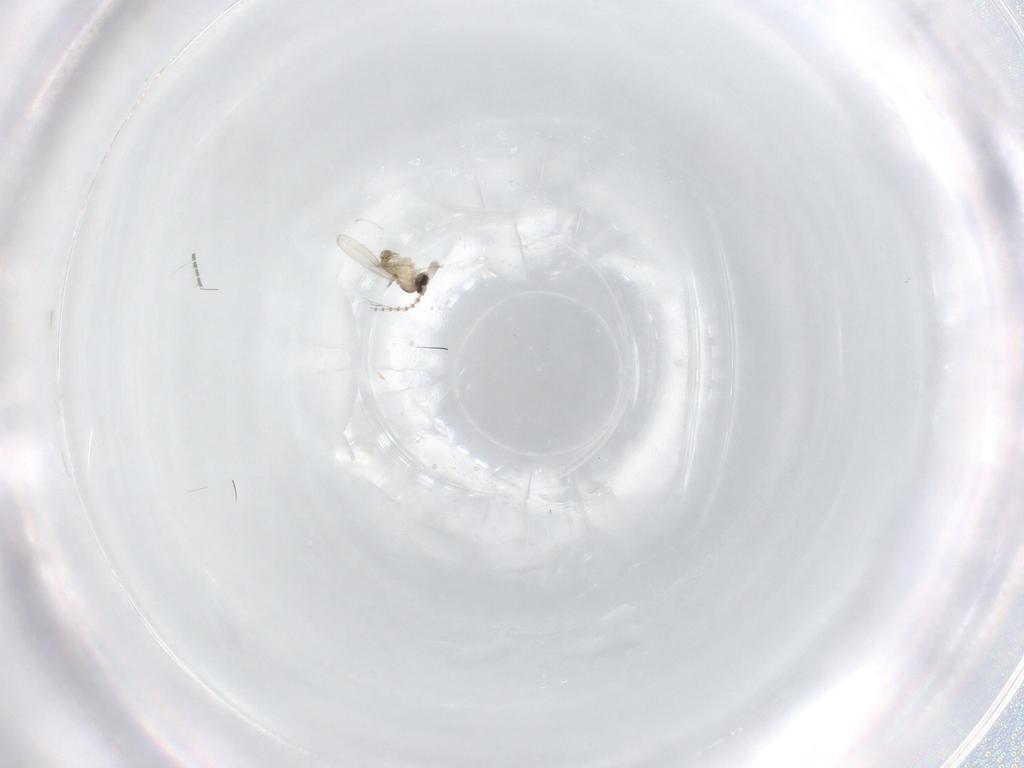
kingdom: Animalia
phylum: Arthropoda
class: Insecta
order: Diptera
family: Cecidomyiidae
